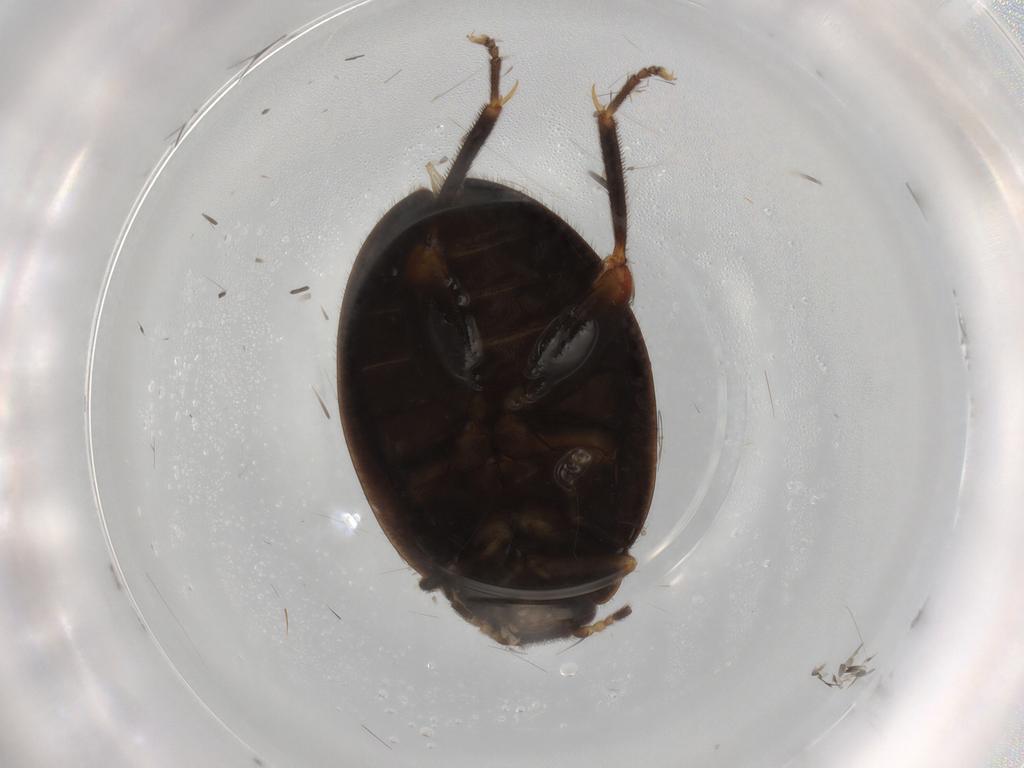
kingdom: Animalia
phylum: Arthropoda
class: Insecta
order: Coleoptera
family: Scirtidae
